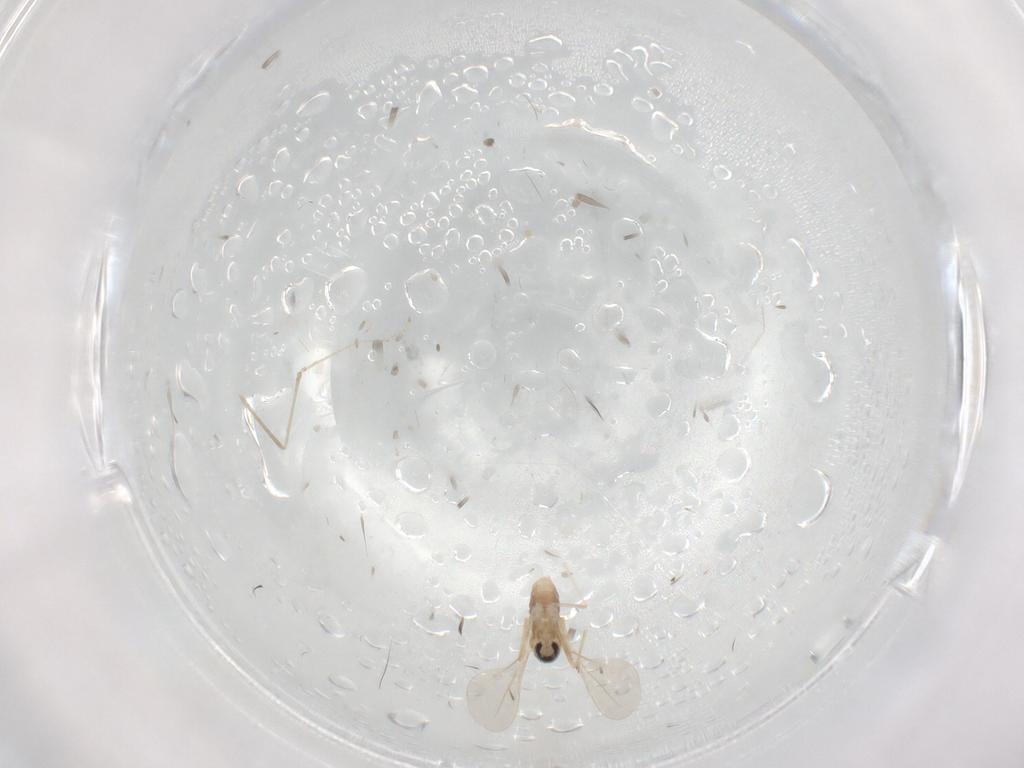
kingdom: Animalia
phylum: Arthropoda
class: Insecta
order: Diptera
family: Cecidomyiidae
